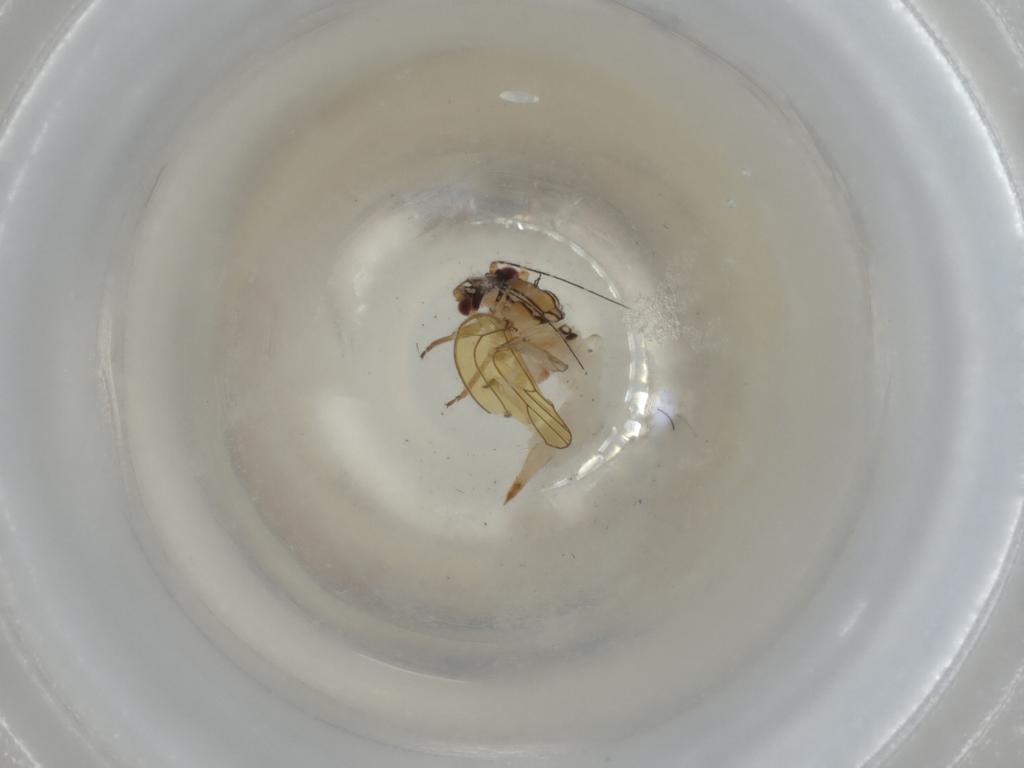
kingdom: Animalia
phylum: Arthropoda
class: Insecta
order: Orthoptera
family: Gryllidae
